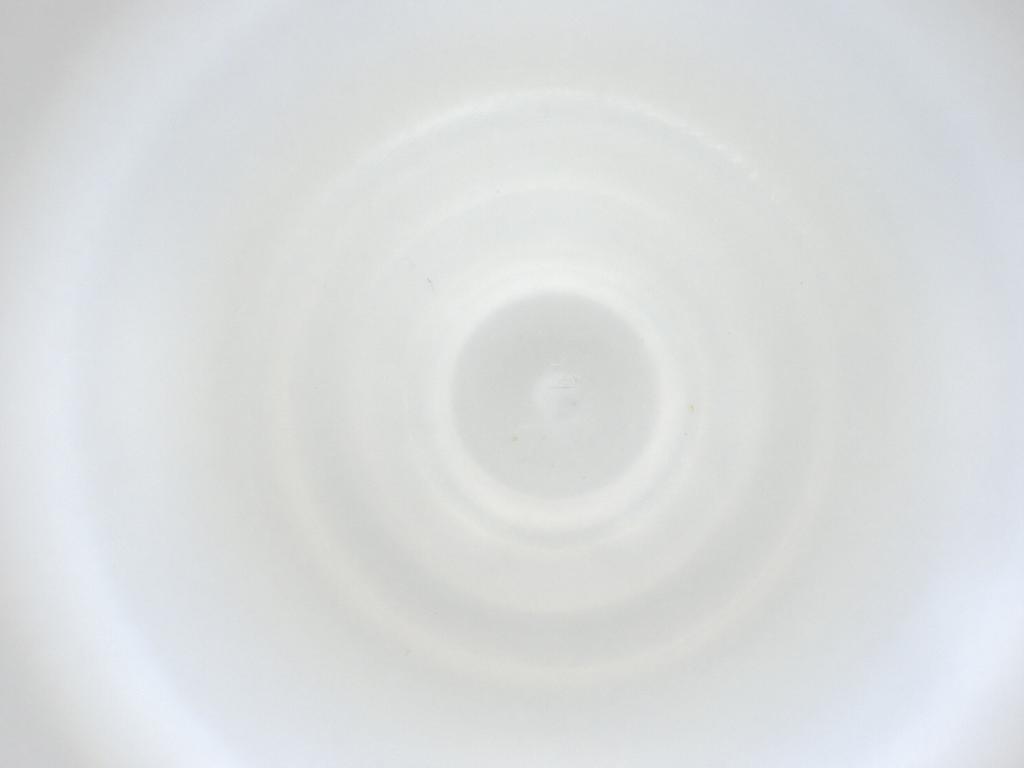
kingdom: Animalia
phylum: Arthropoda
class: Insecta
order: Diptera
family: Cecidomyiidae
